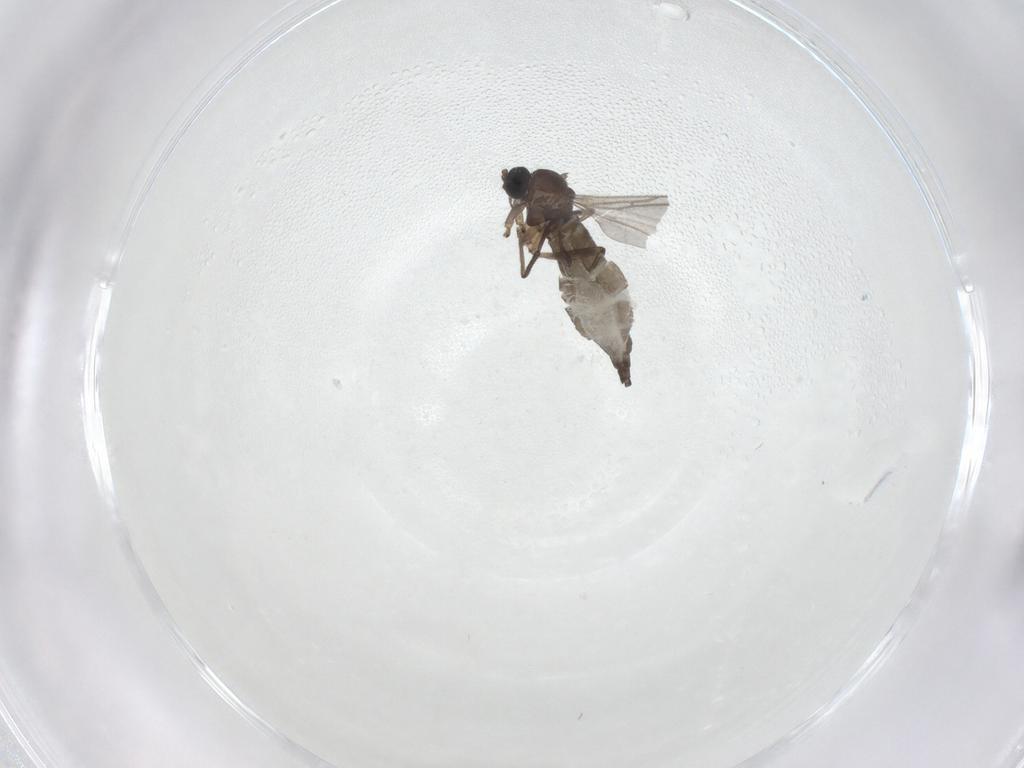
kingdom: Animalia
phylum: Arthropoda
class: Insecta
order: Diptera
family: Sciaridae
